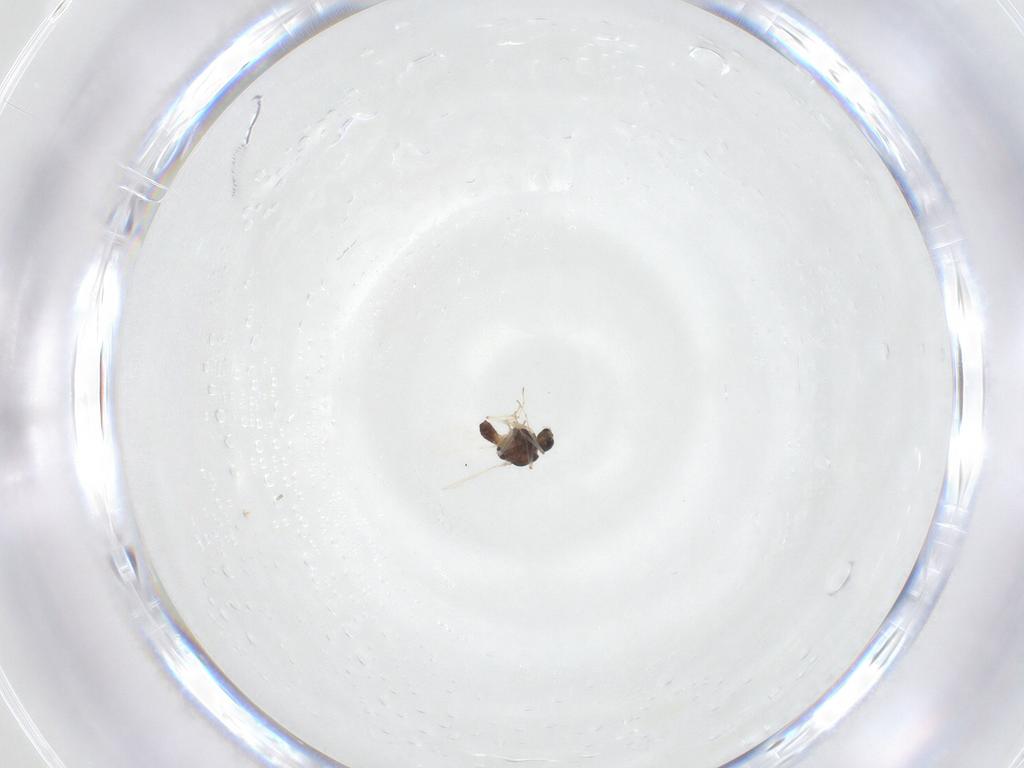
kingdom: Animalia
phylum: Arthropoda
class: Insecta
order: Diptera
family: Chironomidae
